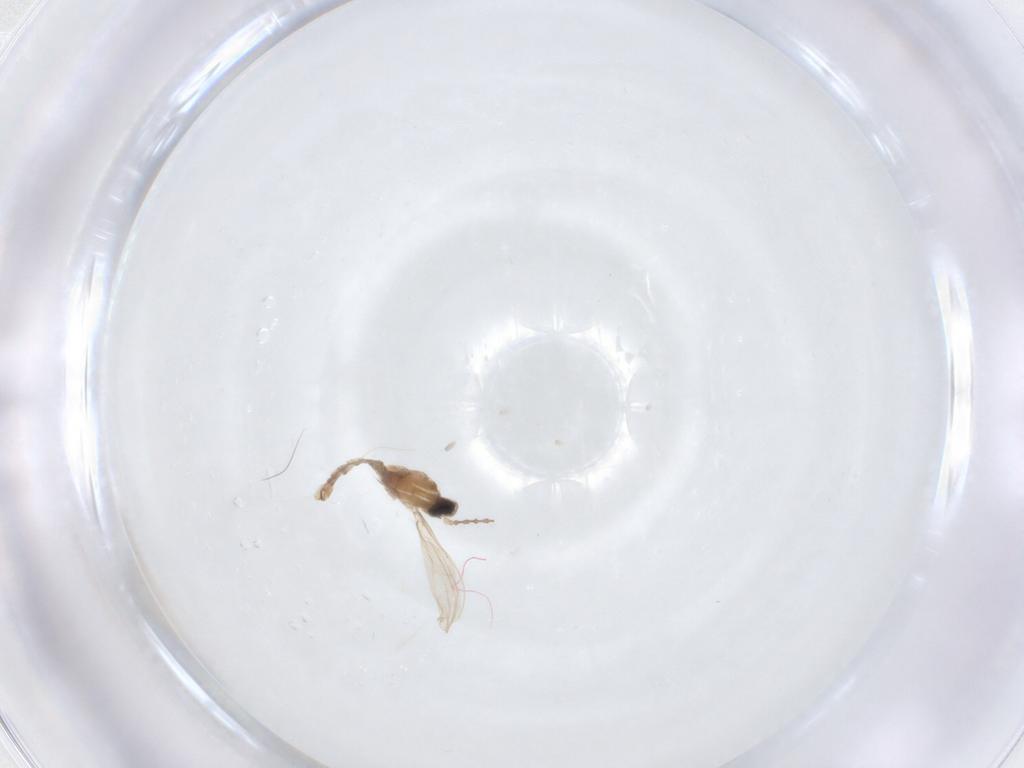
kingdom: Animalia
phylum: Arthropoda
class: Insecta
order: Diptera
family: Cecidomyiidae
